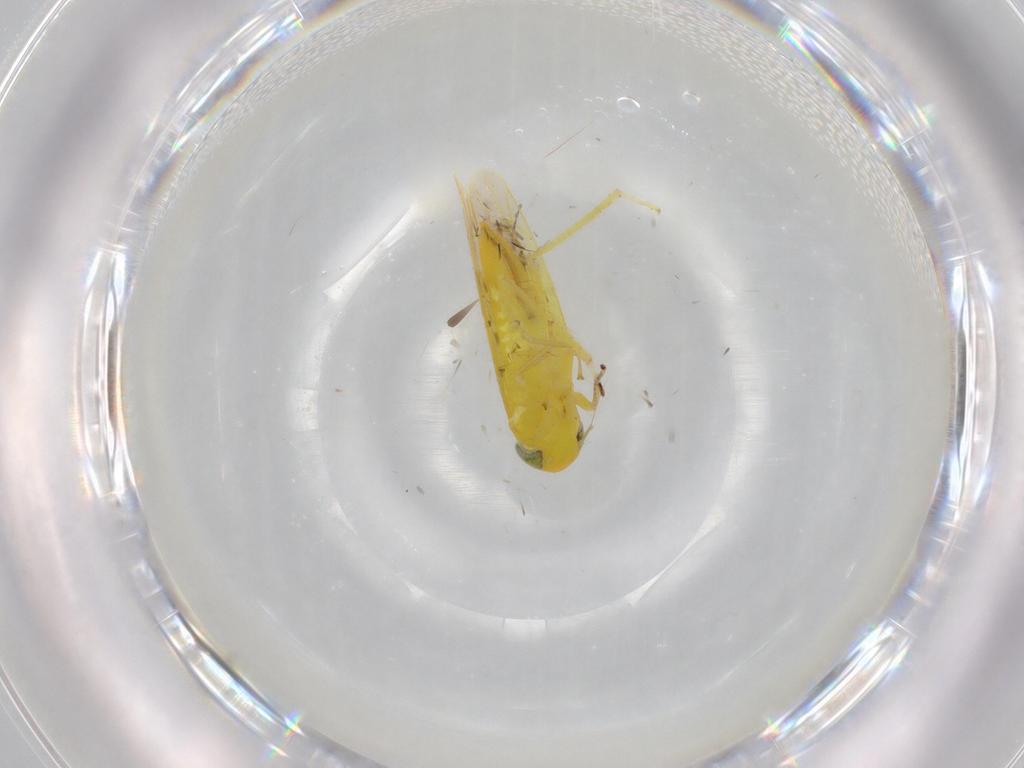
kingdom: Animalia
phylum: Arthropoda
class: Insecta
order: Hemiptera
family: Cicadellidae
